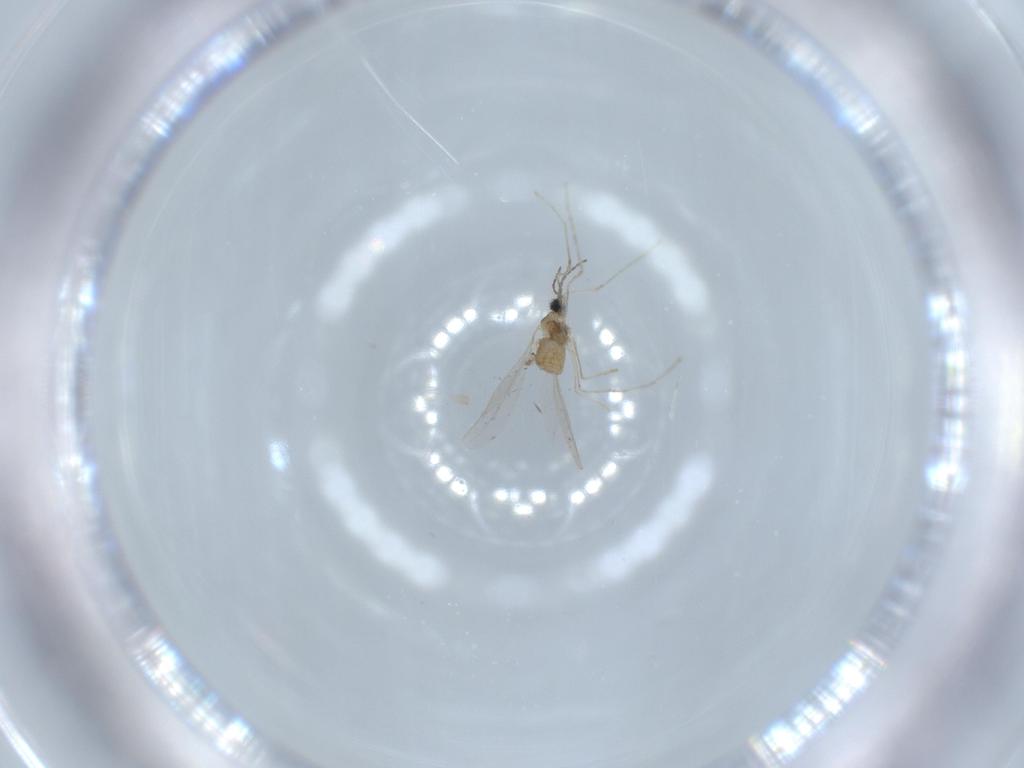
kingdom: Animalia
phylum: Arthropoda
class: Insecta
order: Diptera
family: Cecidomyiidae
